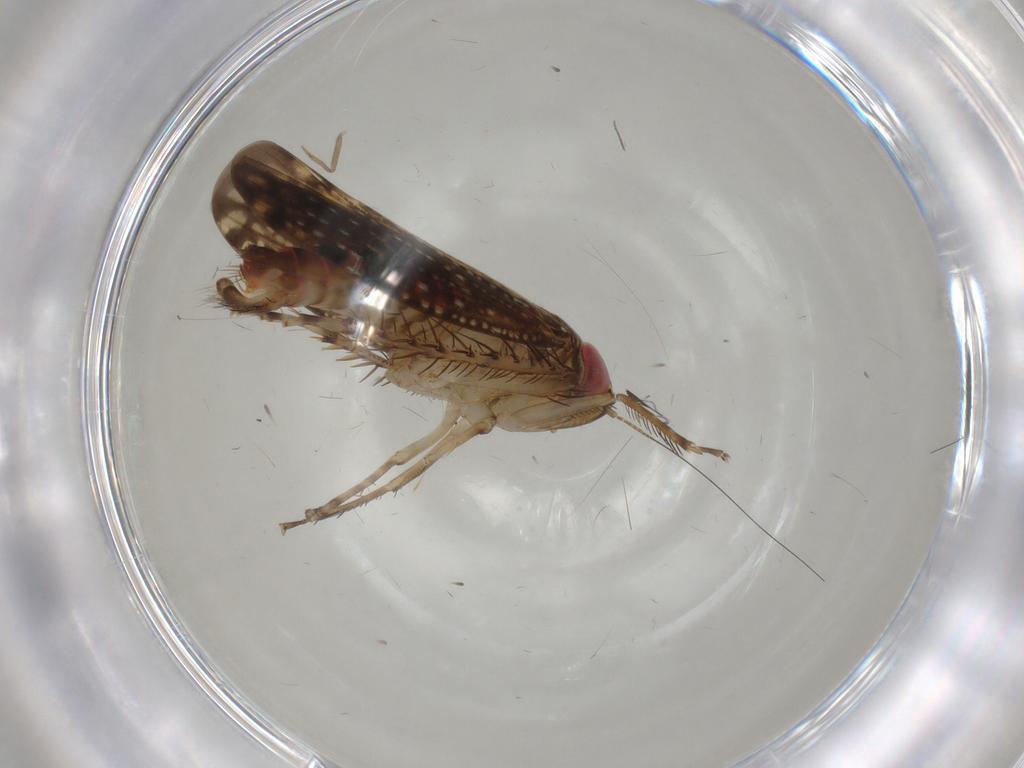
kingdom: Animalia
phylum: Arthropoda
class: Insecta
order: Hemiptera
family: Cicadellidae
